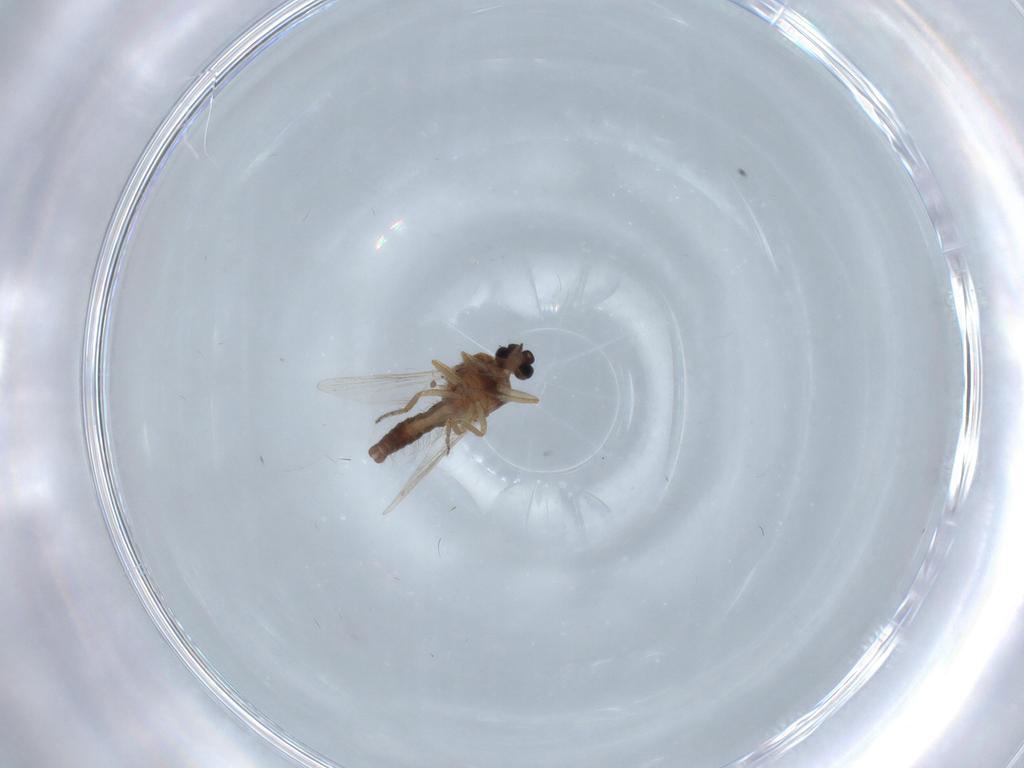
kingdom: Animalia
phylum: Arthropoda
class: Insecta
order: Diptera
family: Ceratopogonidae
